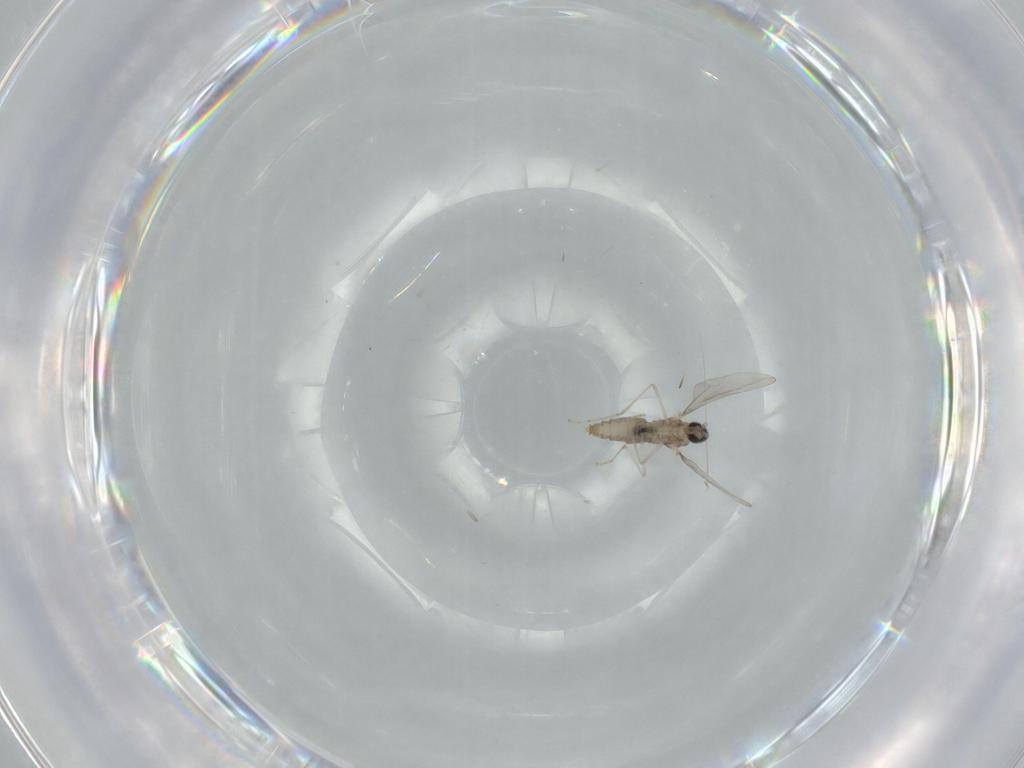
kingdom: Animalia
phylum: Arthropoda
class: Insecta
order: Diptera
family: Cecidomyiidae
